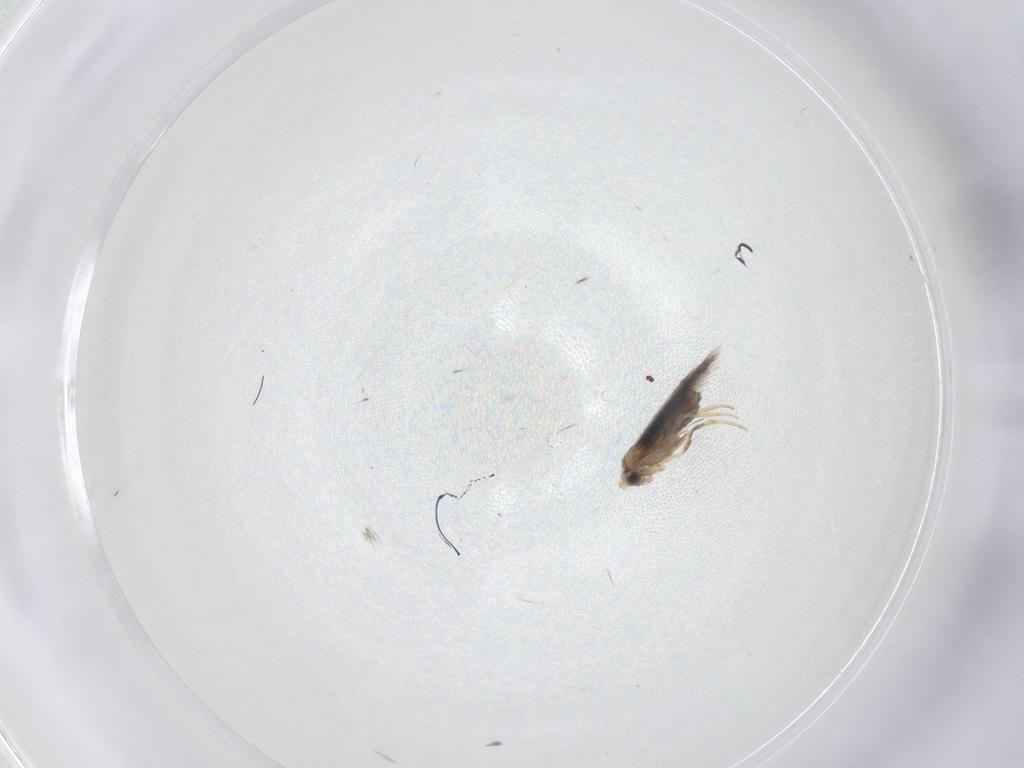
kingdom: Animalia
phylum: Arthropoda
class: Insecta
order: Lepidoptera
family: Nepticulidae
